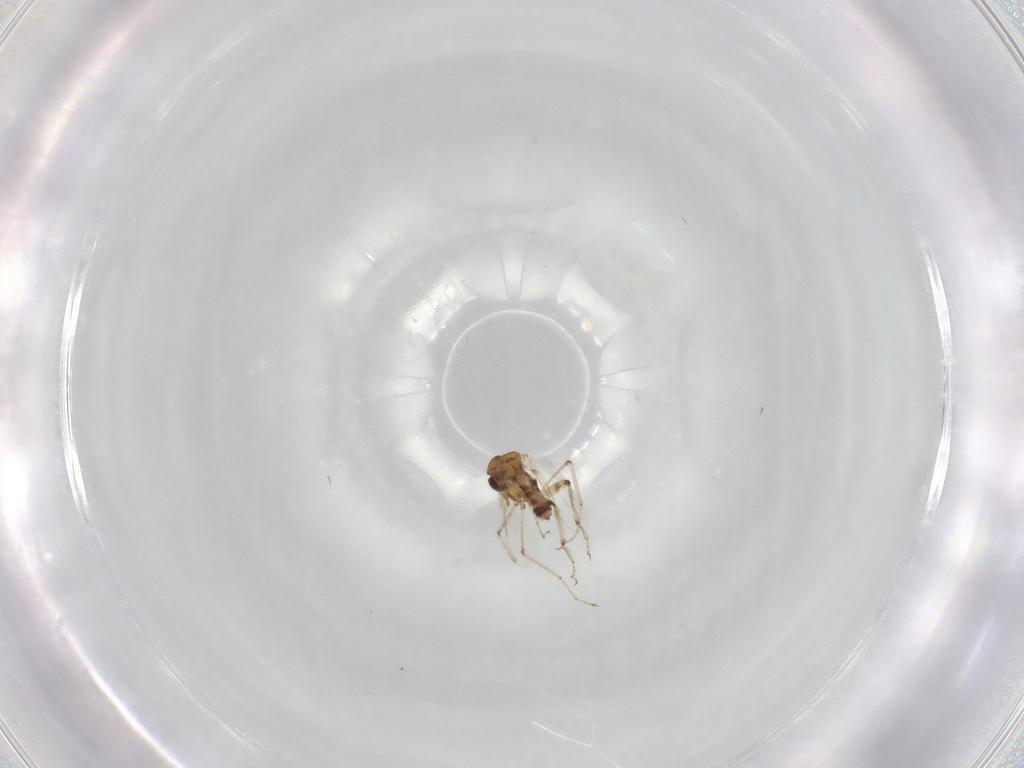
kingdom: Animalia
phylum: Arthropoda
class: Insecta
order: Diptera
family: Ceratopogonidae
